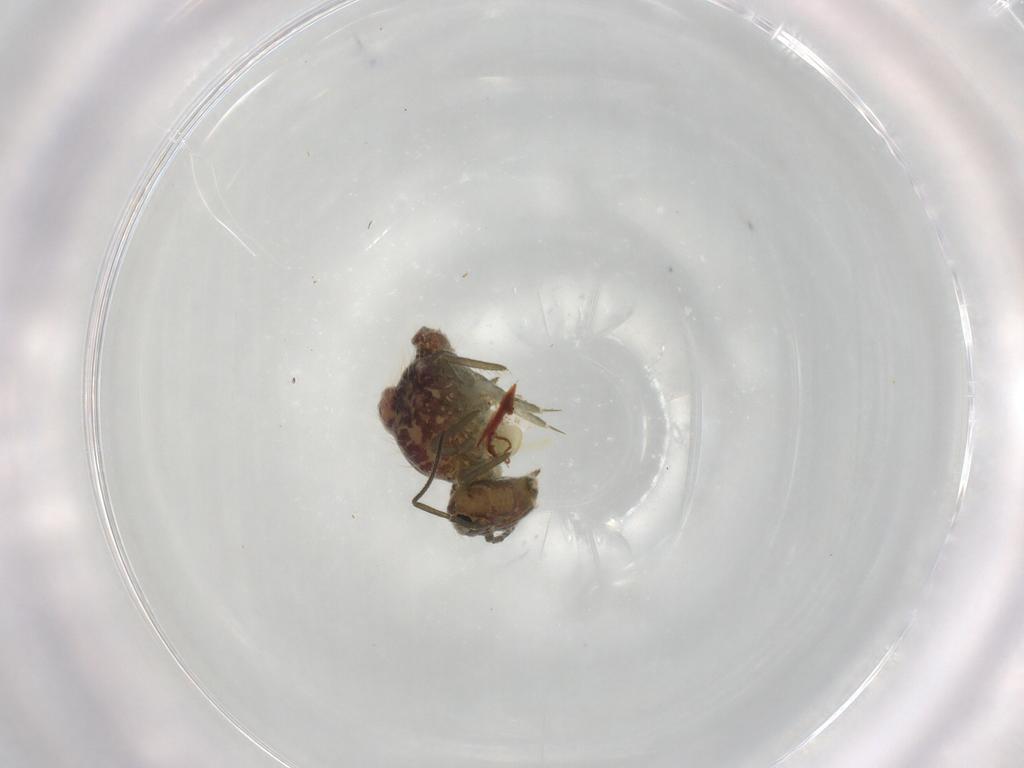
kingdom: Animalia
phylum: Arthropoda
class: Collembola
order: Symphypleona
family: Sminthuridae
